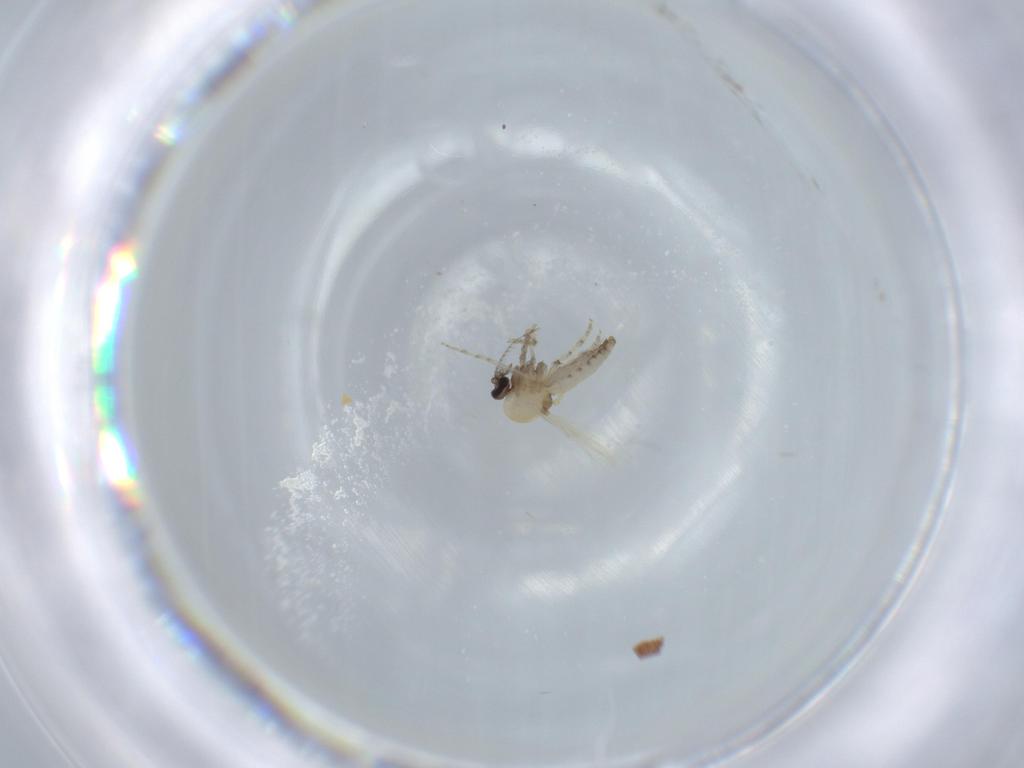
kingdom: Animalia
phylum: Arthropoda
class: Insecta
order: Diptera
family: Ceratopogonidae
